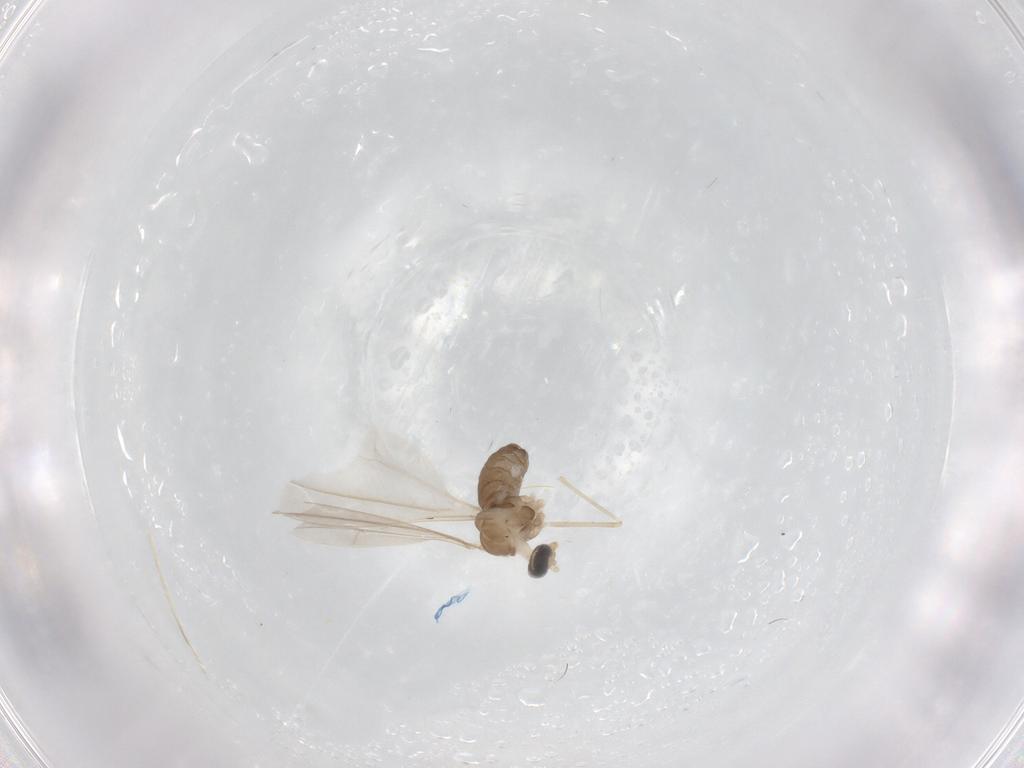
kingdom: Animalia
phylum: Arthropoda
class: Insecta
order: Diptera
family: Cecidomyiidae
